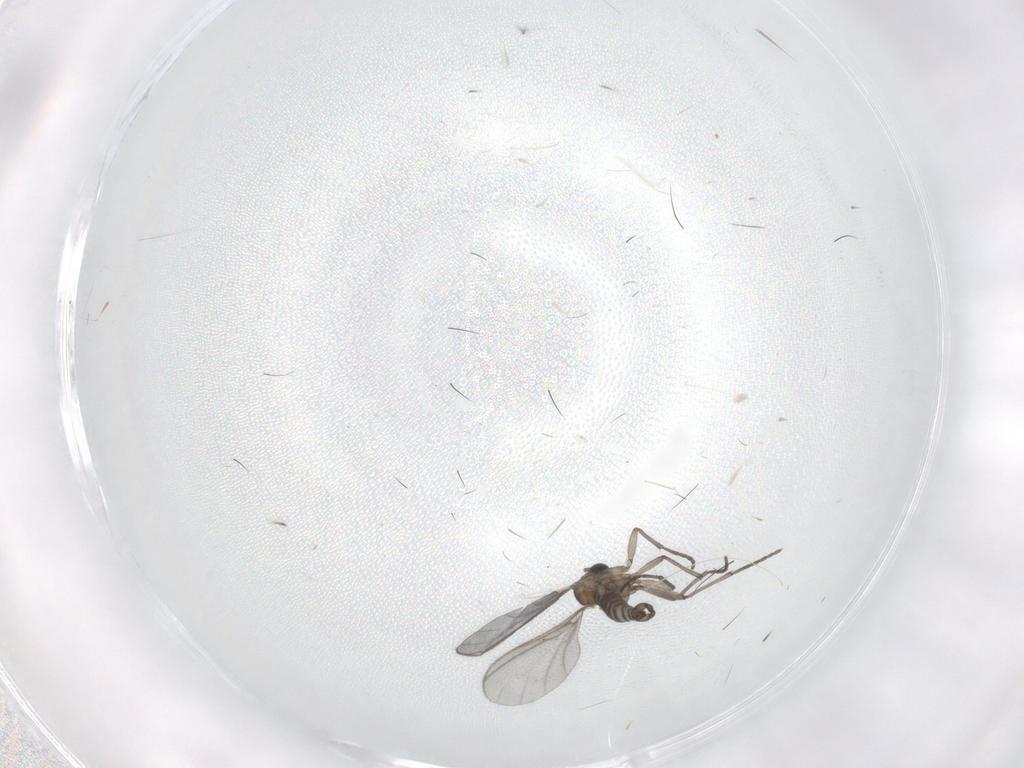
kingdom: Animalia
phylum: Arthropoda
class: Insecta
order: Diptera
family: Sciaridae
